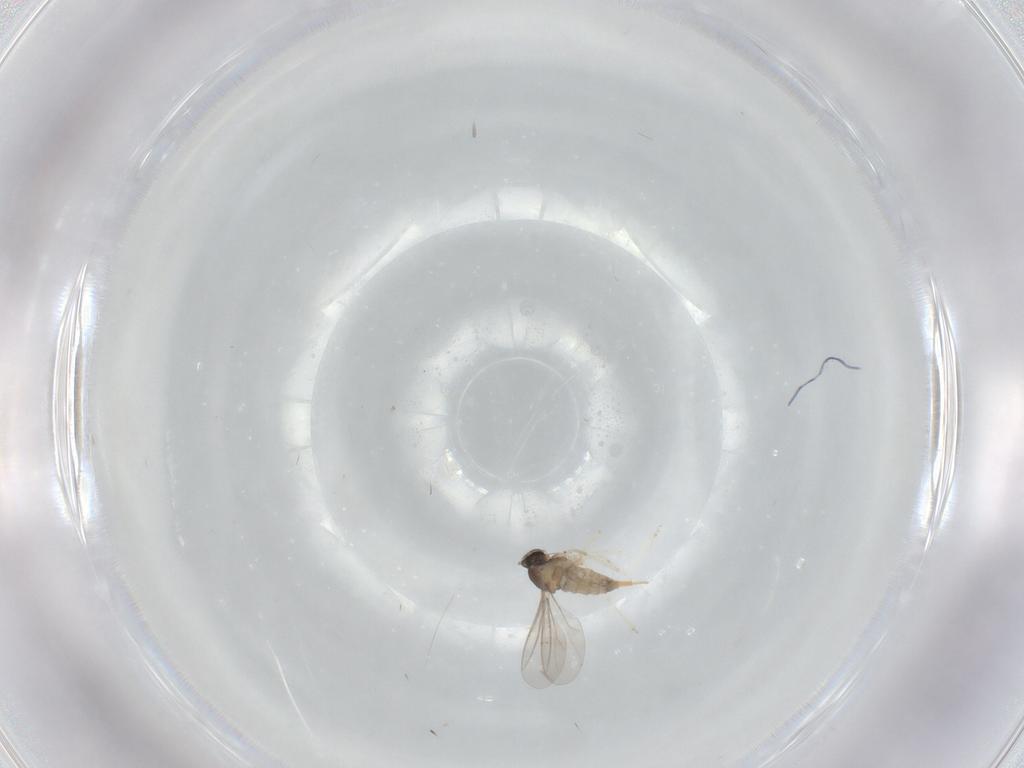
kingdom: Animalia
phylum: Arthropoda
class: Insecta
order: Diptera
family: Cecidomyiidae
